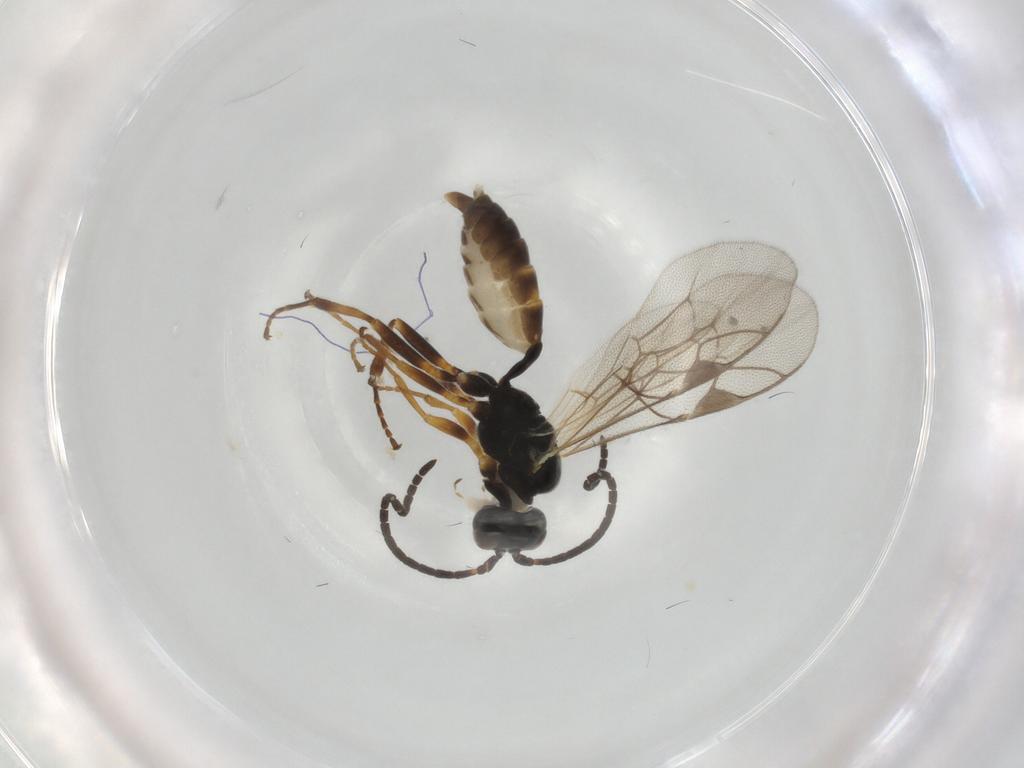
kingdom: Animalia
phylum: Arthropoda
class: Insecta
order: Hymenoptera
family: Ichneumonidae
